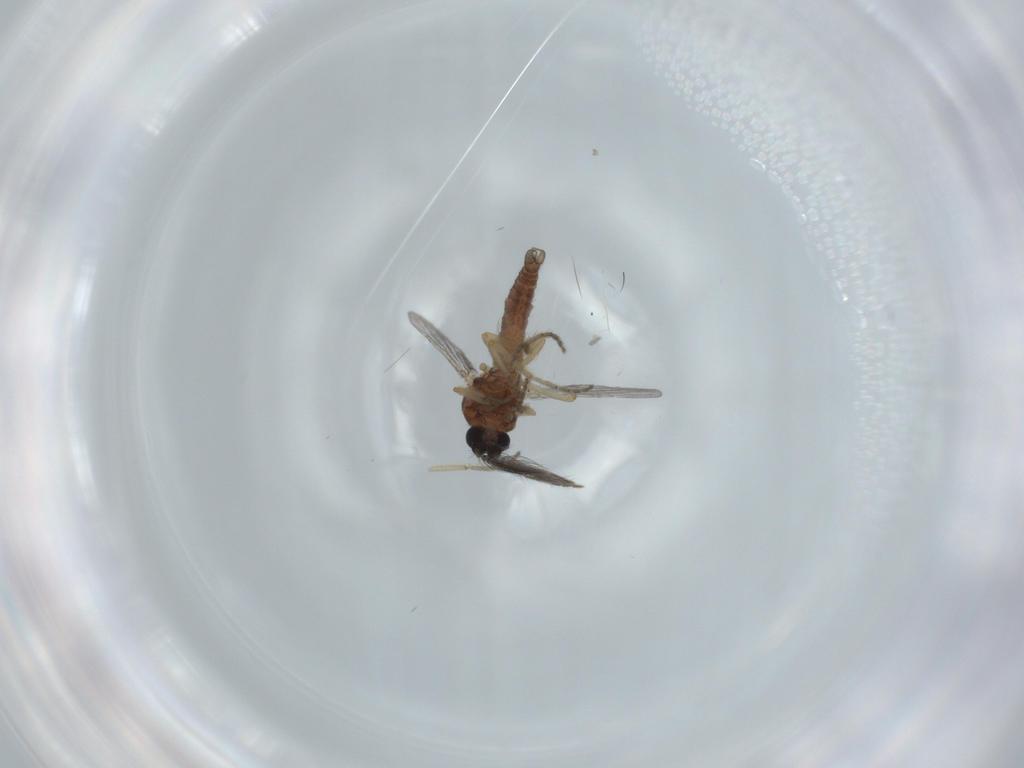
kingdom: Animalia
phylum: Arthropoda
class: Insecta
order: Diptera
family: Ceratopogonidae
